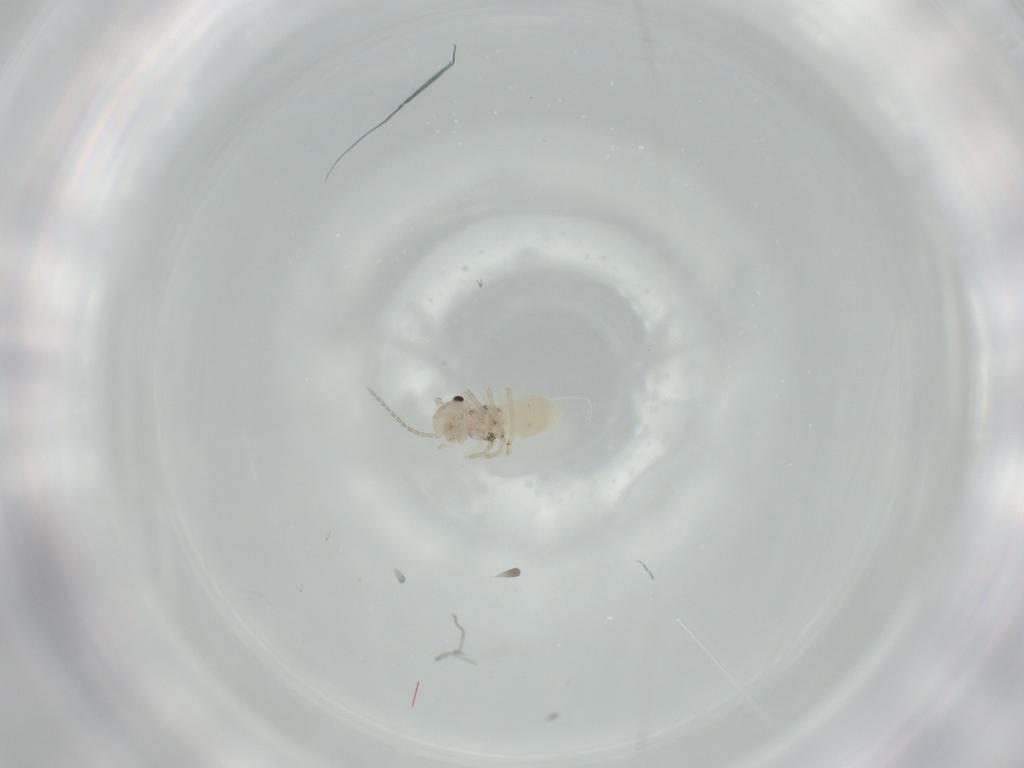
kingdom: Animalia
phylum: Arthropoda
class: Insecta
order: Psocodea
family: Amphipsocidae
